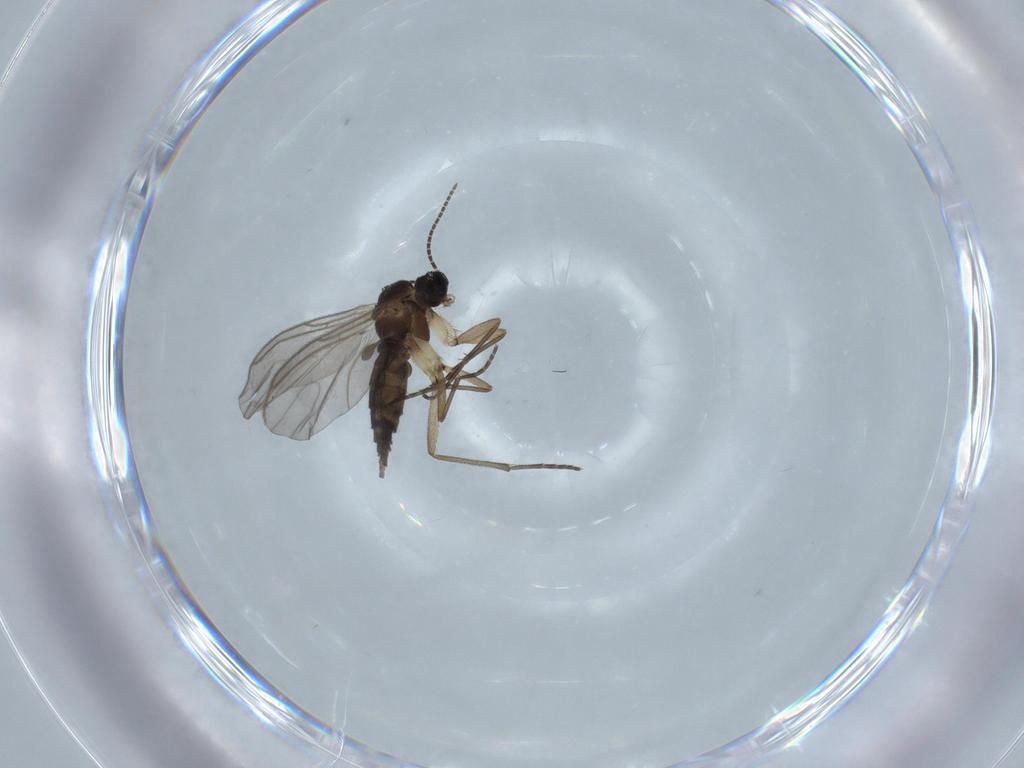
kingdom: Animalia
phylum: Arthropoda
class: Insecta
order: Diptera
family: Sciaridae
